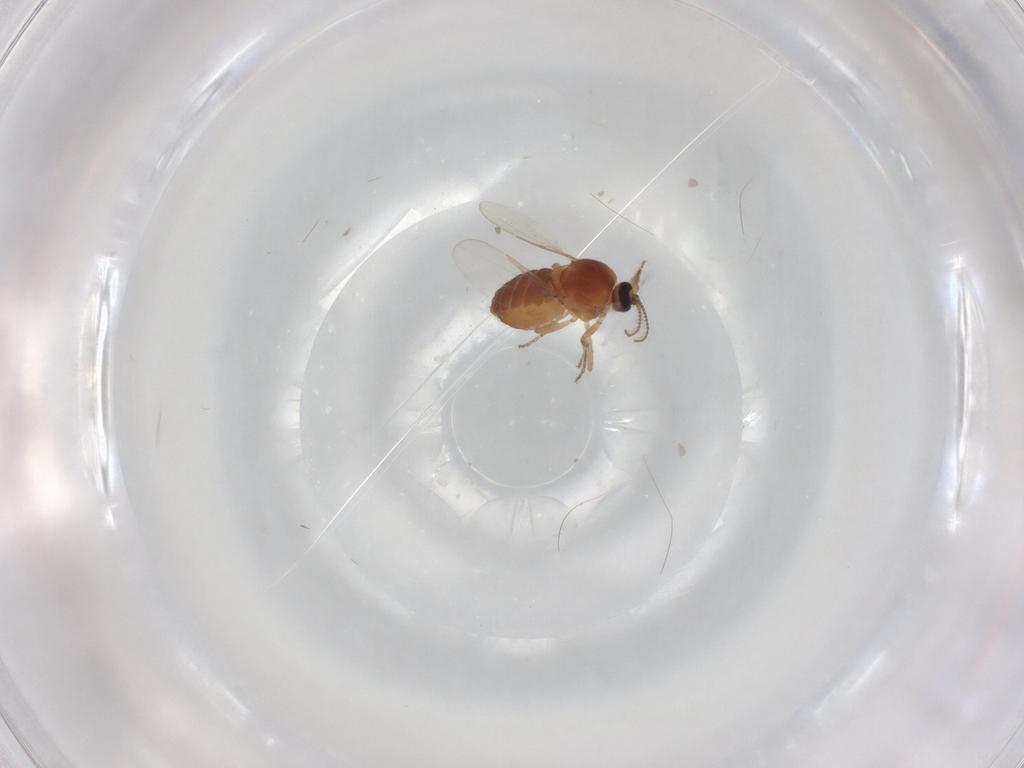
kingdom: Animalia
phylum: Arthropoda
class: Insecta
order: Diptera
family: Ceratopogonidae
